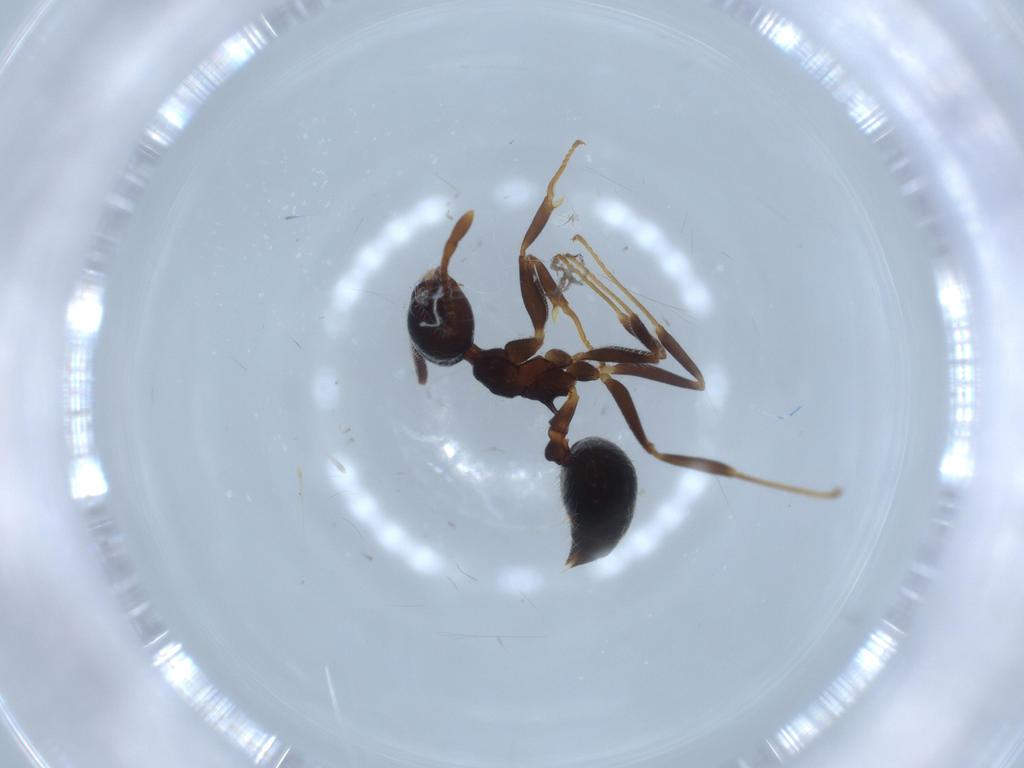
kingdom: Animalia
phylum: Arthropoda
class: Insecta
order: Hymenoptera
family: Formicidae
